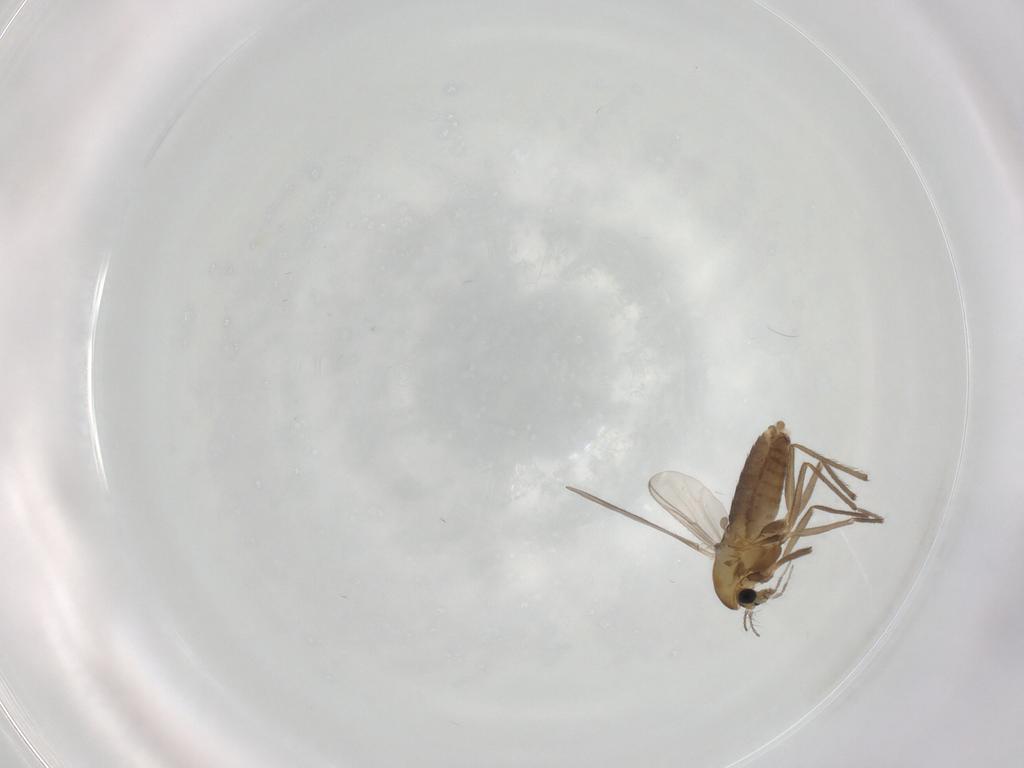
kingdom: Animalia
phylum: Arthropoda
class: Insecta
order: Diptera
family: Chironomidae
